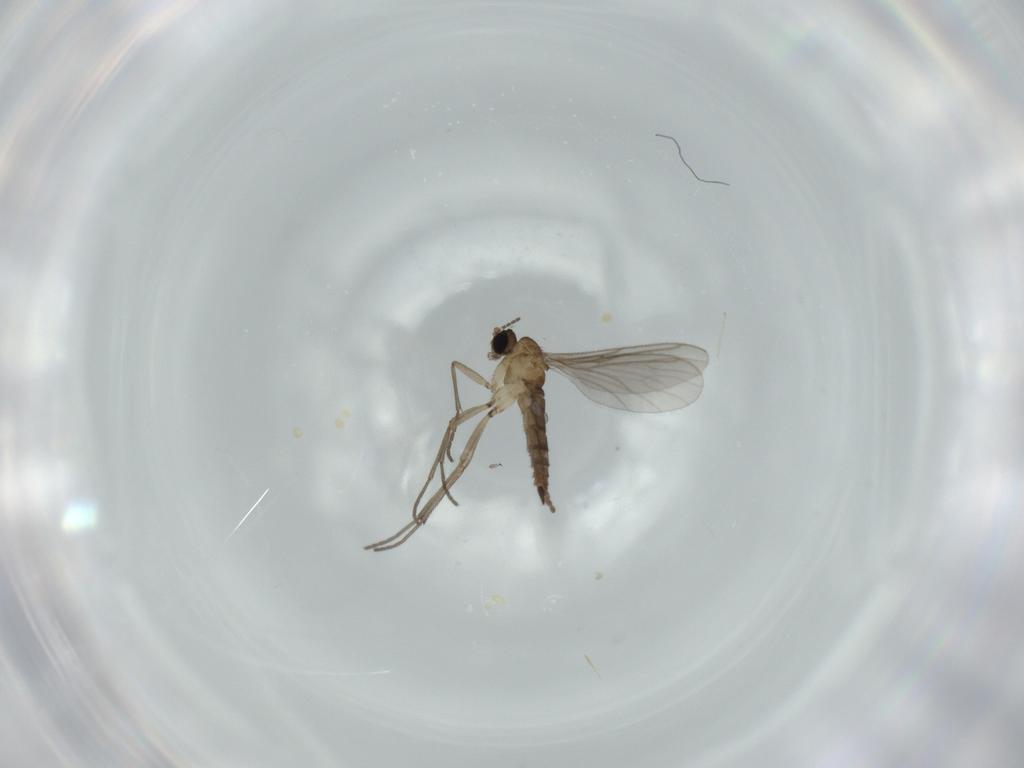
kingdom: Animalia
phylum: Arthropoda
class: Insecta
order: Diptera
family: Sciaridae
